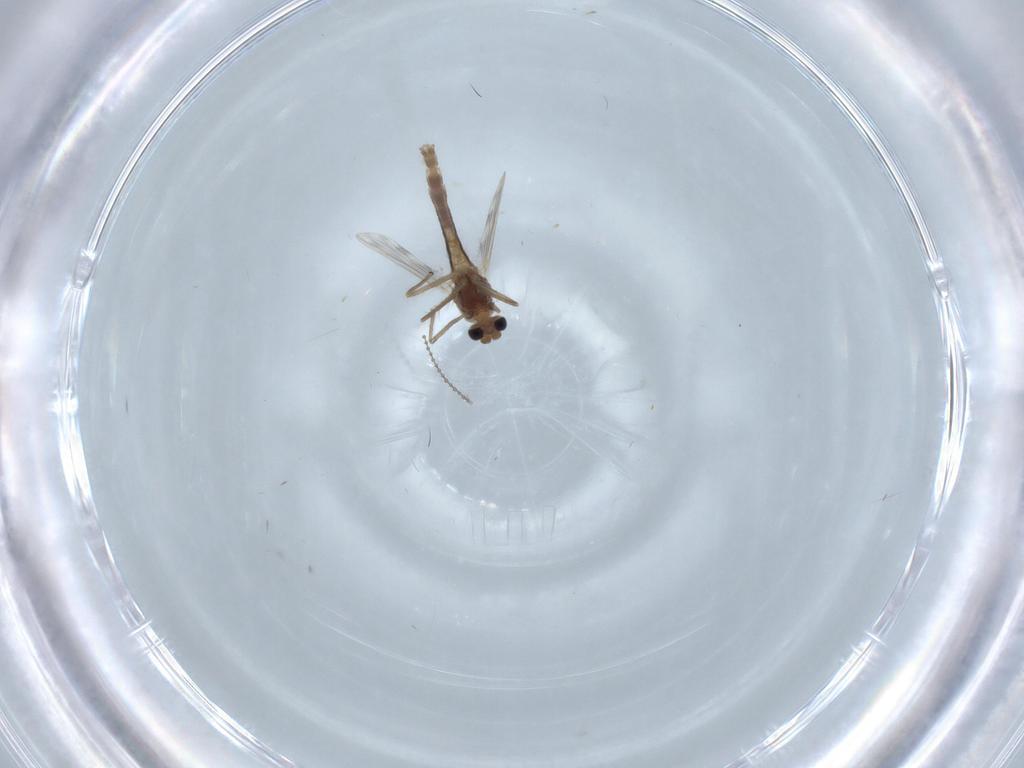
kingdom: Animalia
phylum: Arthropoda
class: Insecta
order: Diptera
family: Chironomidae
